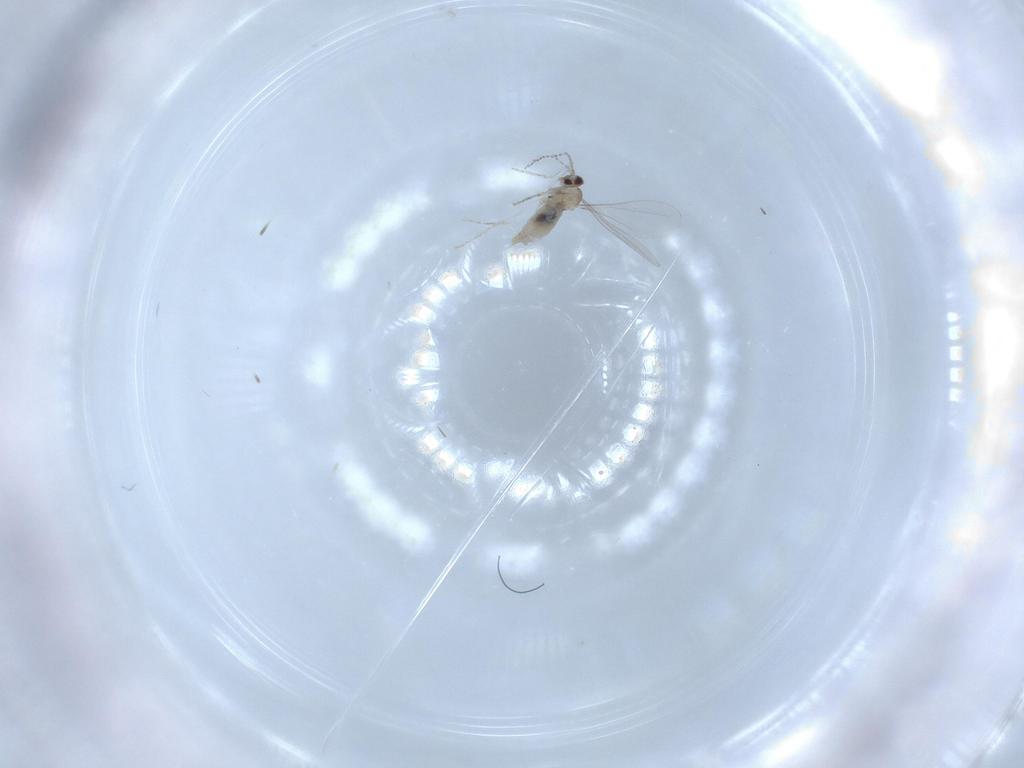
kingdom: Animalia
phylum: Arthropoda
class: Insecta
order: Diptera
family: Cecidomyiidae
